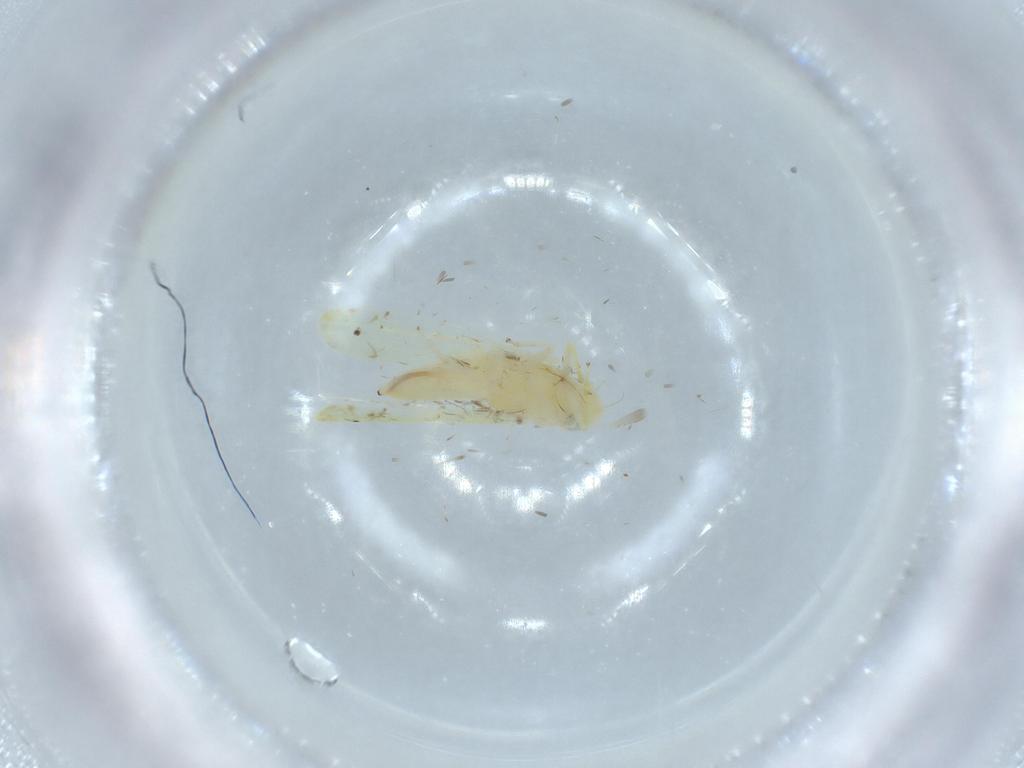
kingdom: Animalia
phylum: Arthropoda
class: Insecta
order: Hemiptera
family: Cicadellidae
